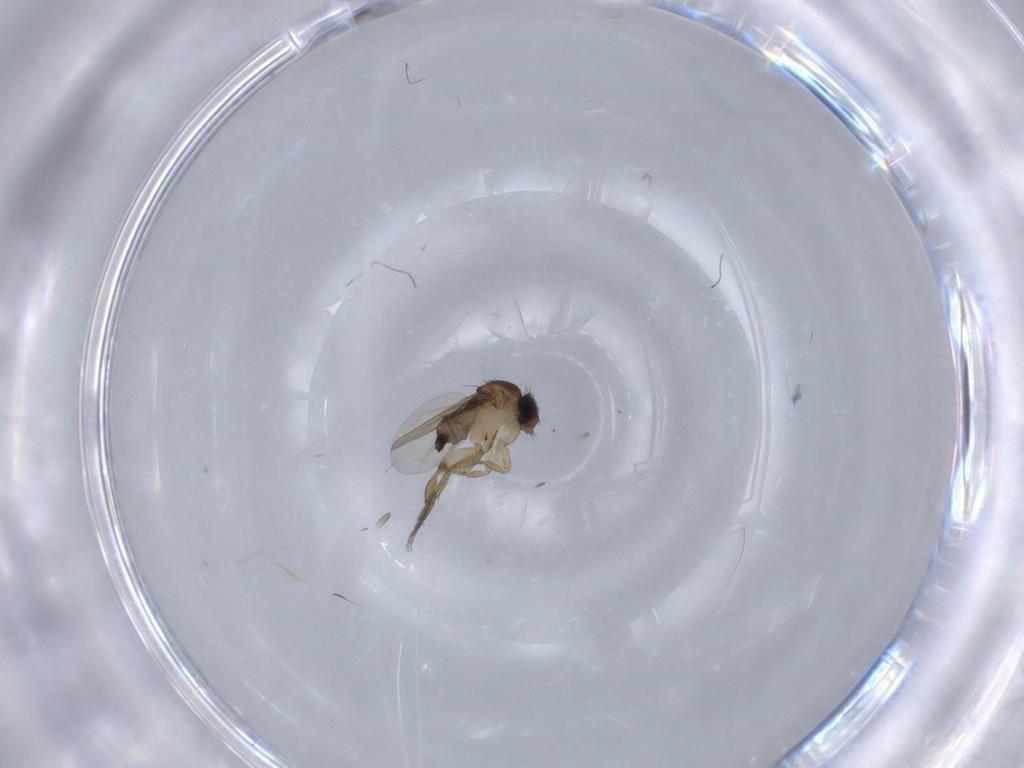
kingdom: Animalia
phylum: Arthropoda
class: Insecta
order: Diptera
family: Phoridae
